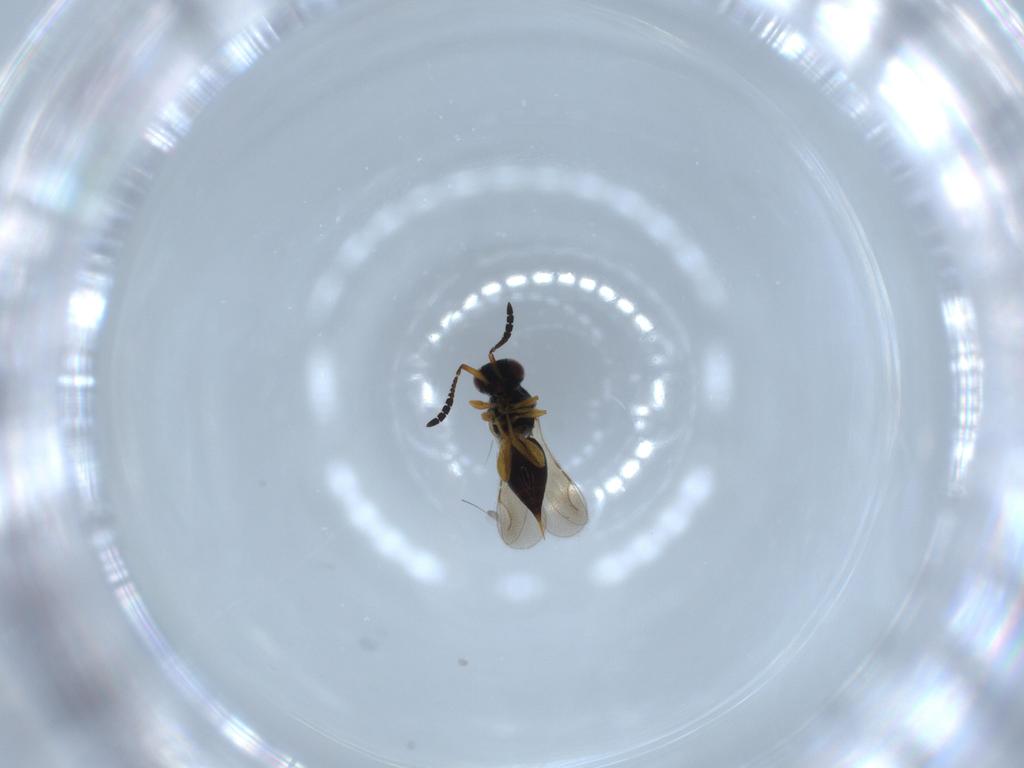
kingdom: Animalia
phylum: Arthropoda
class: Insecta
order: Hymenoptera
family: Ceraphronidae
